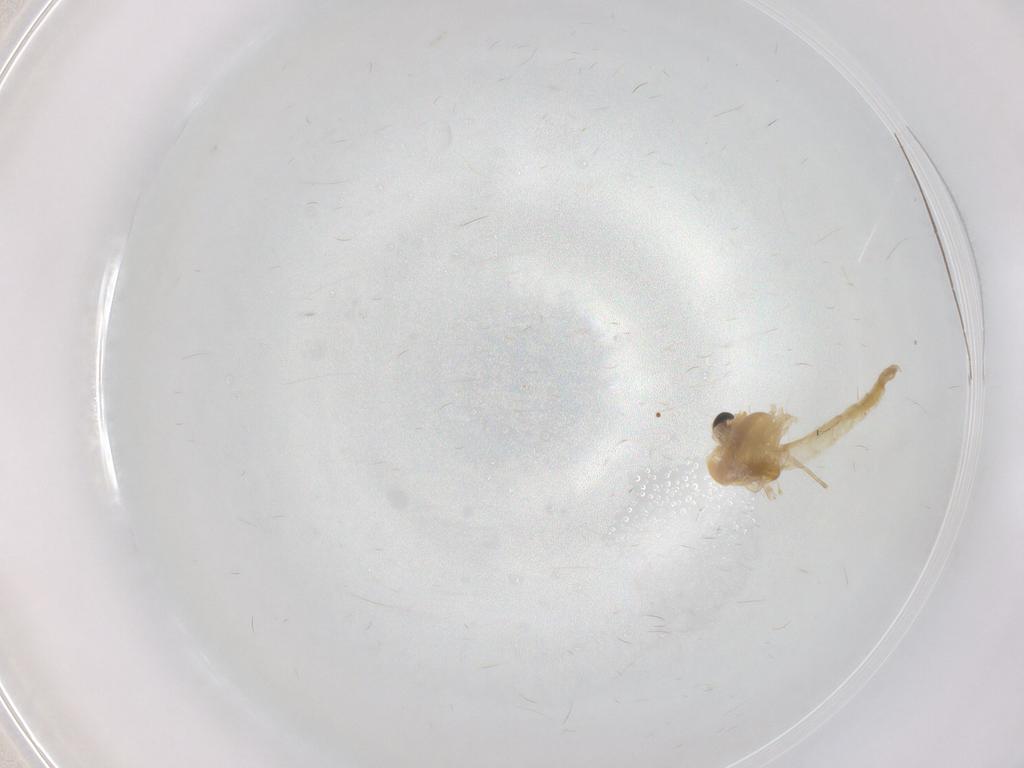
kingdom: Animalia
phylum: Arthropoda
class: Insecta
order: Diptera
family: Chironomidae
